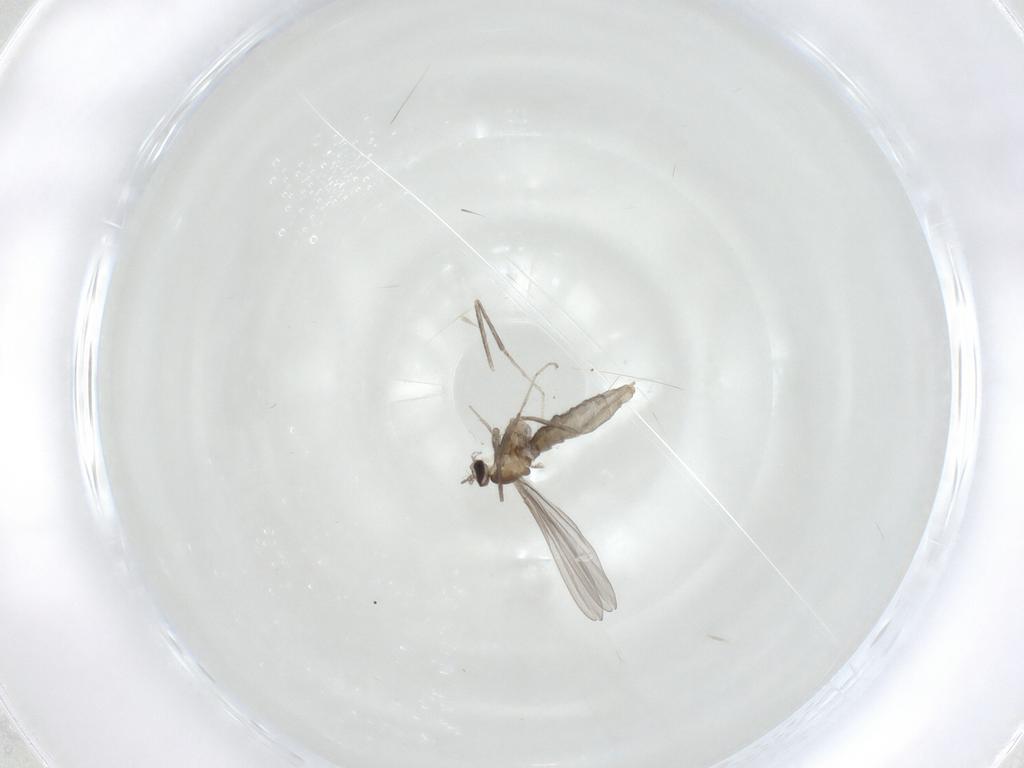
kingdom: Animalia
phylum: Arthropoda
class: Insecta
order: Diptera
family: Cecidomyiidae
